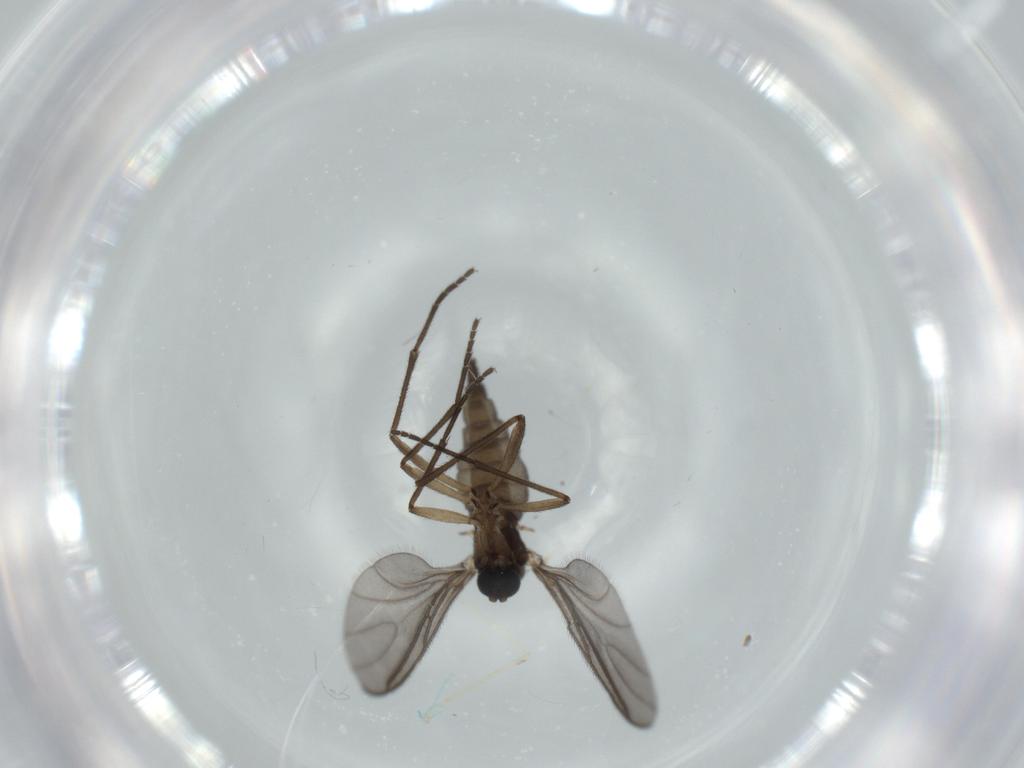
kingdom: Animalia
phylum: Arthropoda
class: Insecta
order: Diptera
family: Sciaridae
